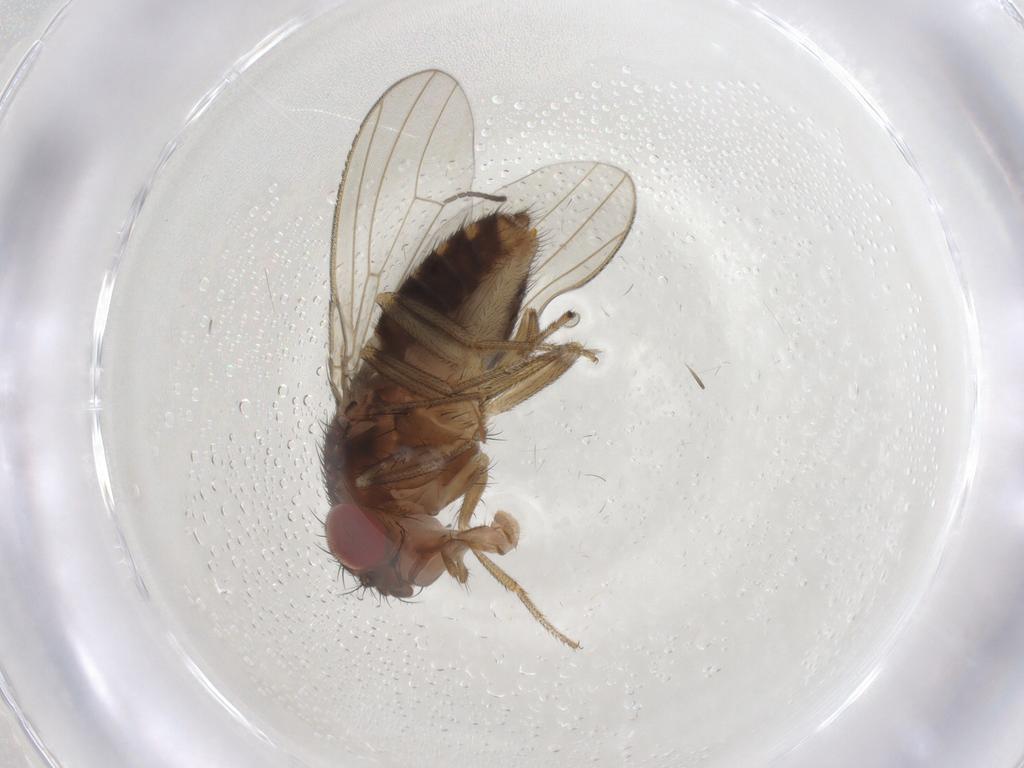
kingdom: Animalia
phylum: Arthropoda
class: Insecta
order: Diptera
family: Drosophilidae
